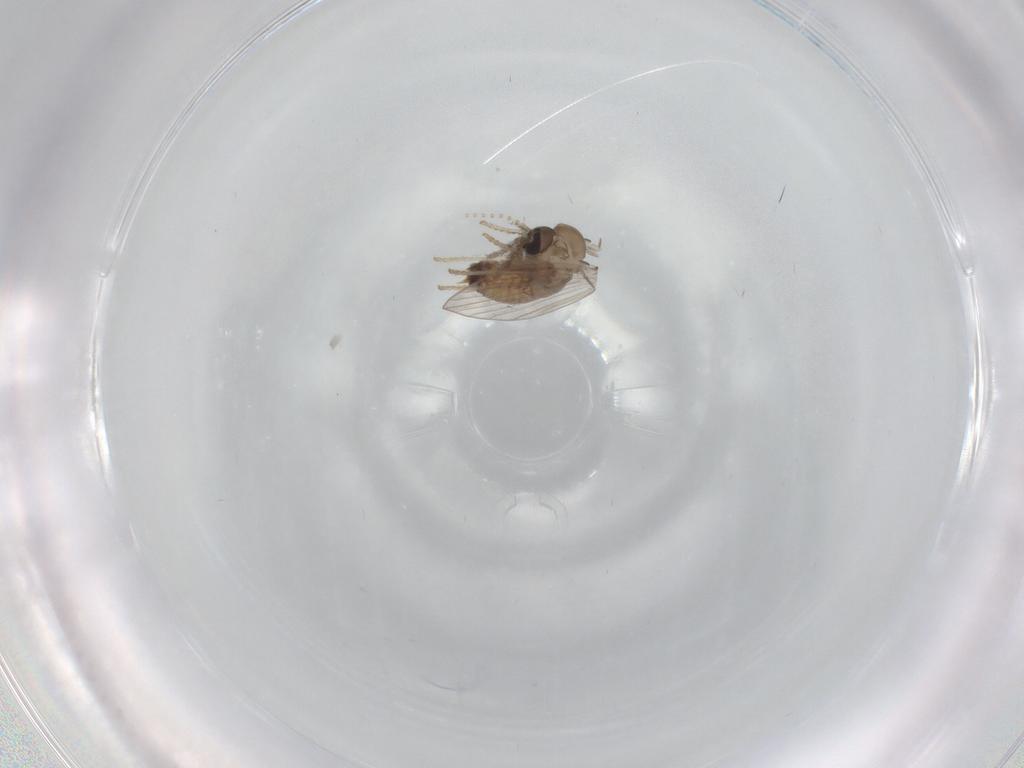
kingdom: Animalia
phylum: Arthropoda
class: Insecta
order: Diptera
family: Psychodidae
